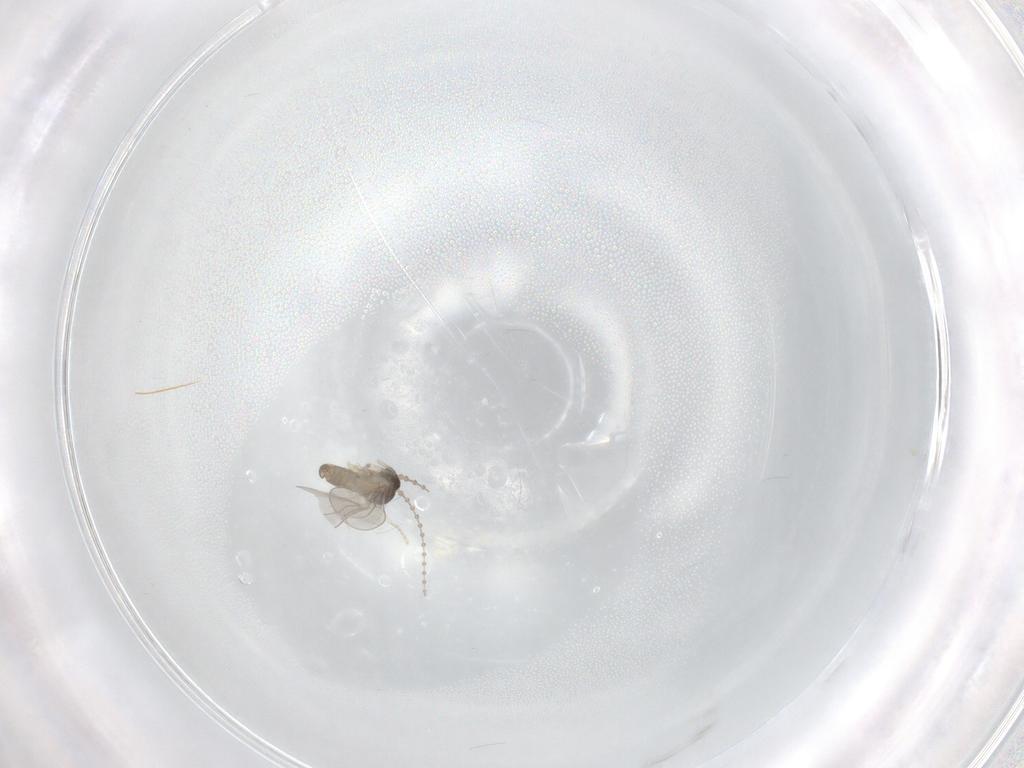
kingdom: Animalia
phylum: Arthropoda
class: Insecta
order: Diptera
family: Cecidomyiidae
